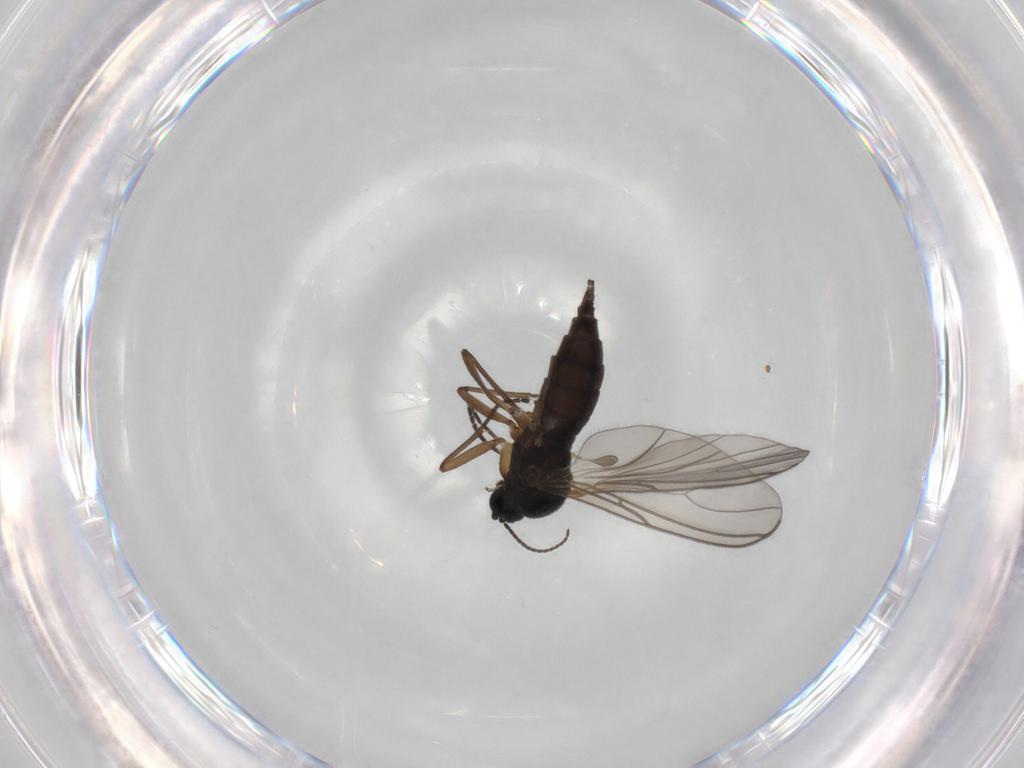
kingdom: Animalia
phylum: Arthropoda
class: Insecta
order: Diptera
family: Sciaridae
